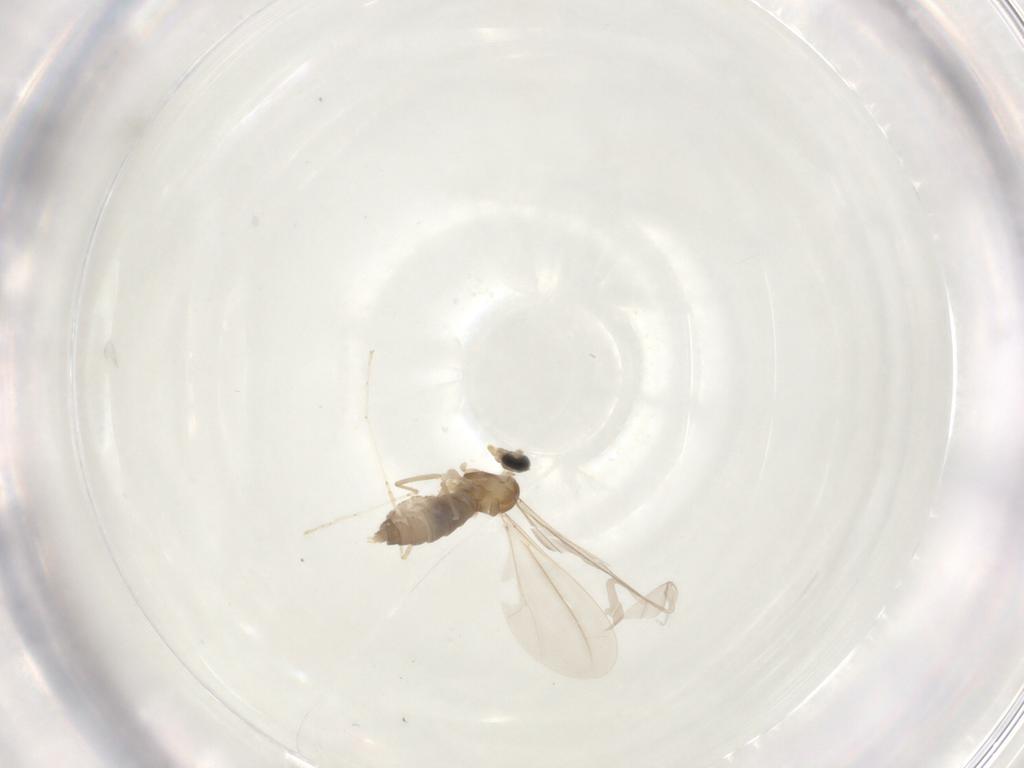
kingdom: Animalia
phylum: Arthropoda
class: Insecta
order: Diptera
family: Cecidomyiidae
